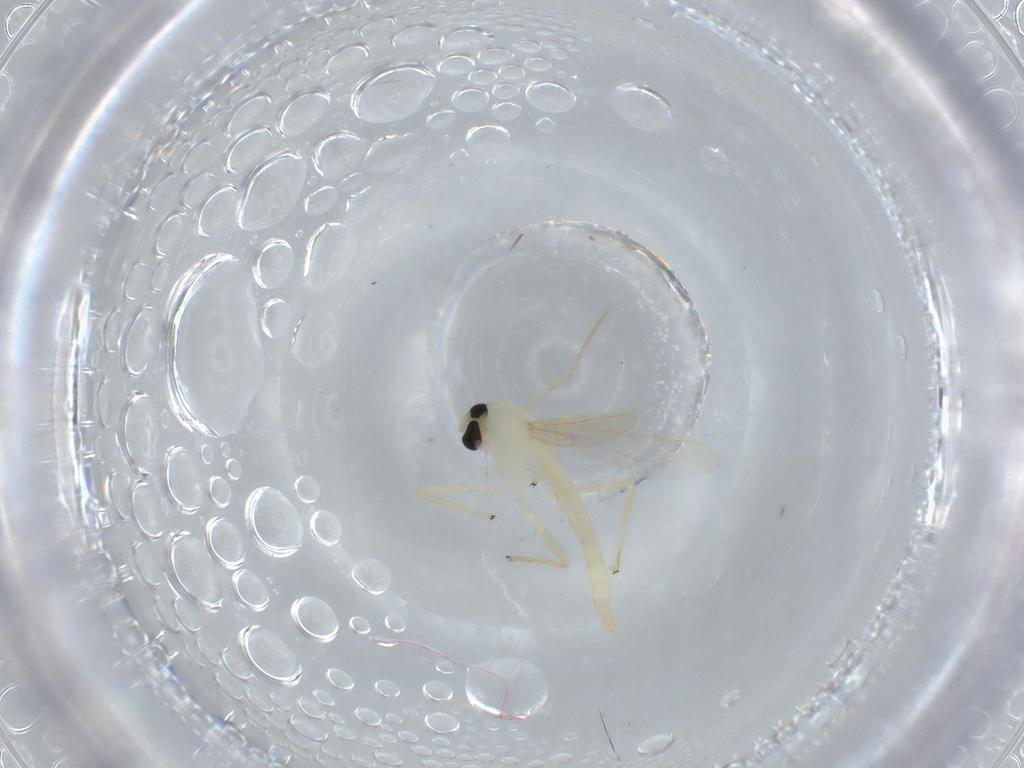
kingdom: Animalia
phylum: Arthropoda
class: Insecta
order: Diptera
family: Chironomidae
